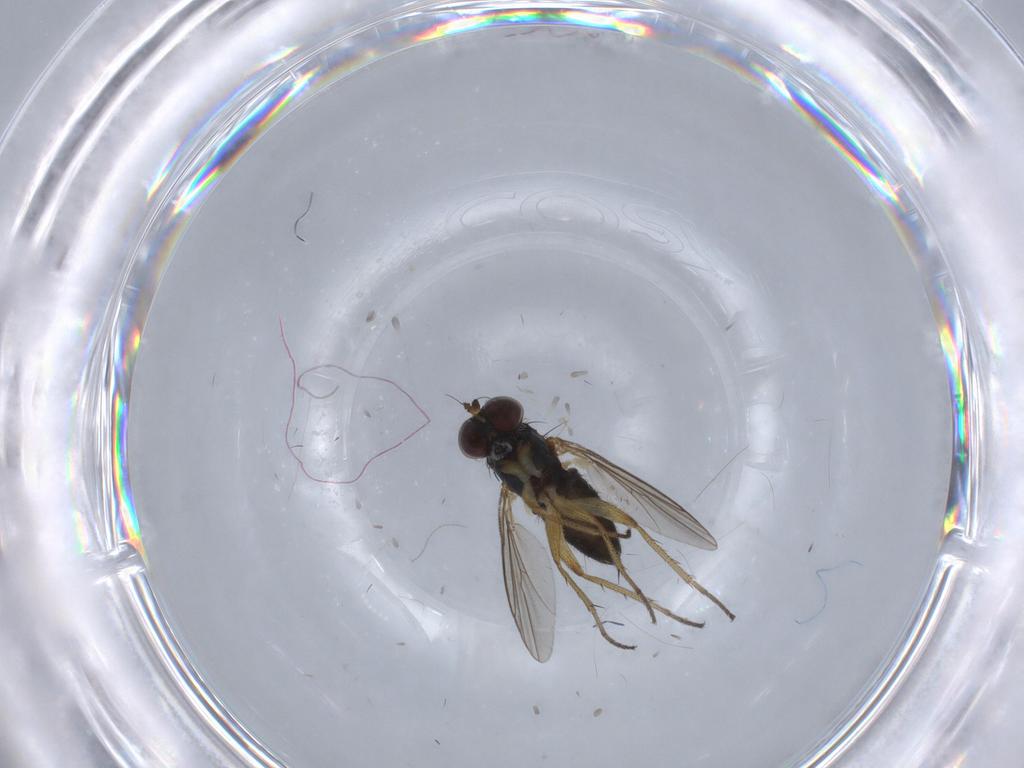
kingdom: Animalia
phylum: Arthropoda
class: Insecta
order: Diptera
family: Dolichopodidae
